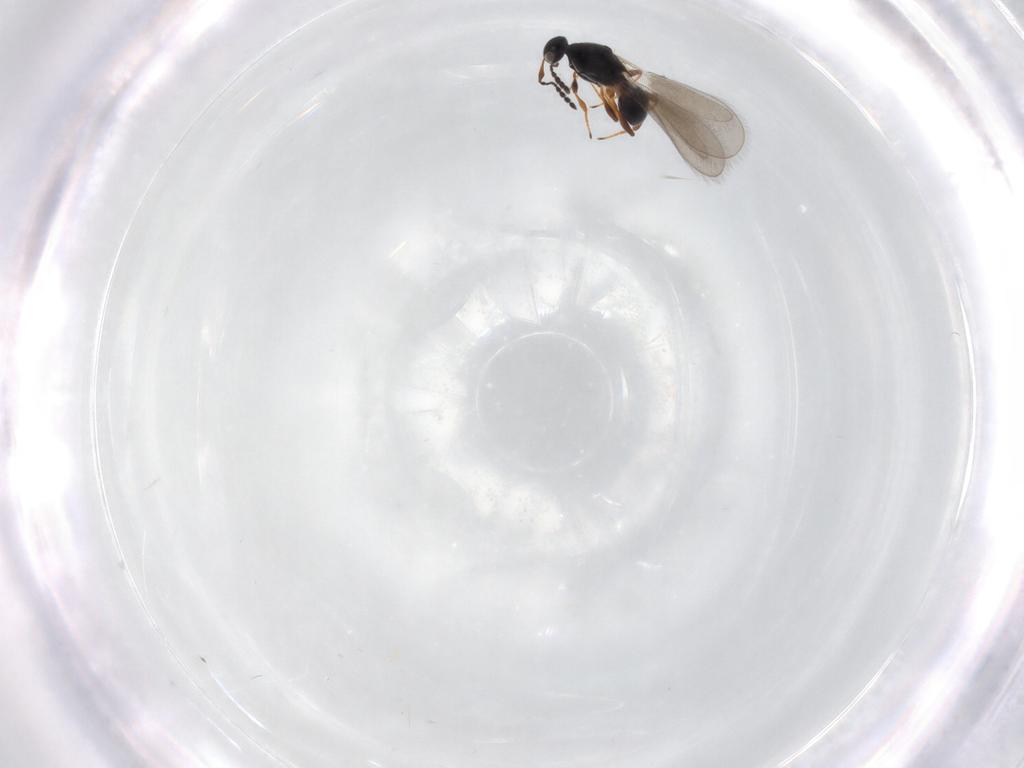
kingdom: Animalia
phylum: Arthropoda
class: Insecta
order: Hymenoptera
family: Platygastridae
